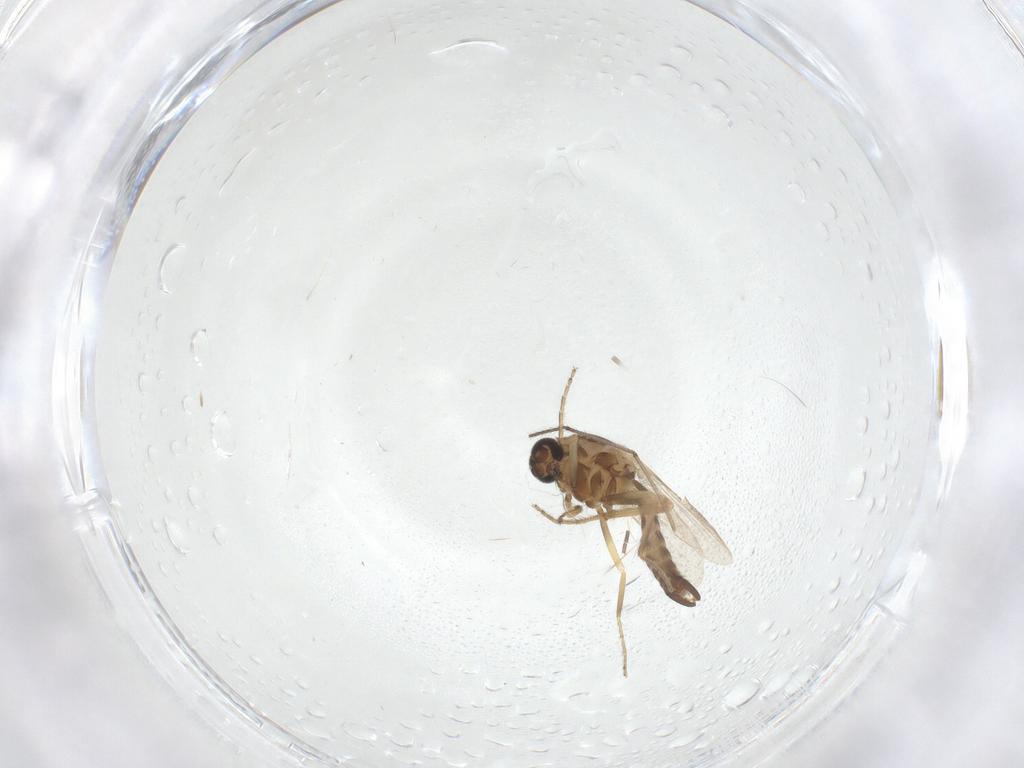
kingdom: Animalia
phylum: Arthropoda
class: Insecta
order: Diptera
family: Ceratopogonidae
